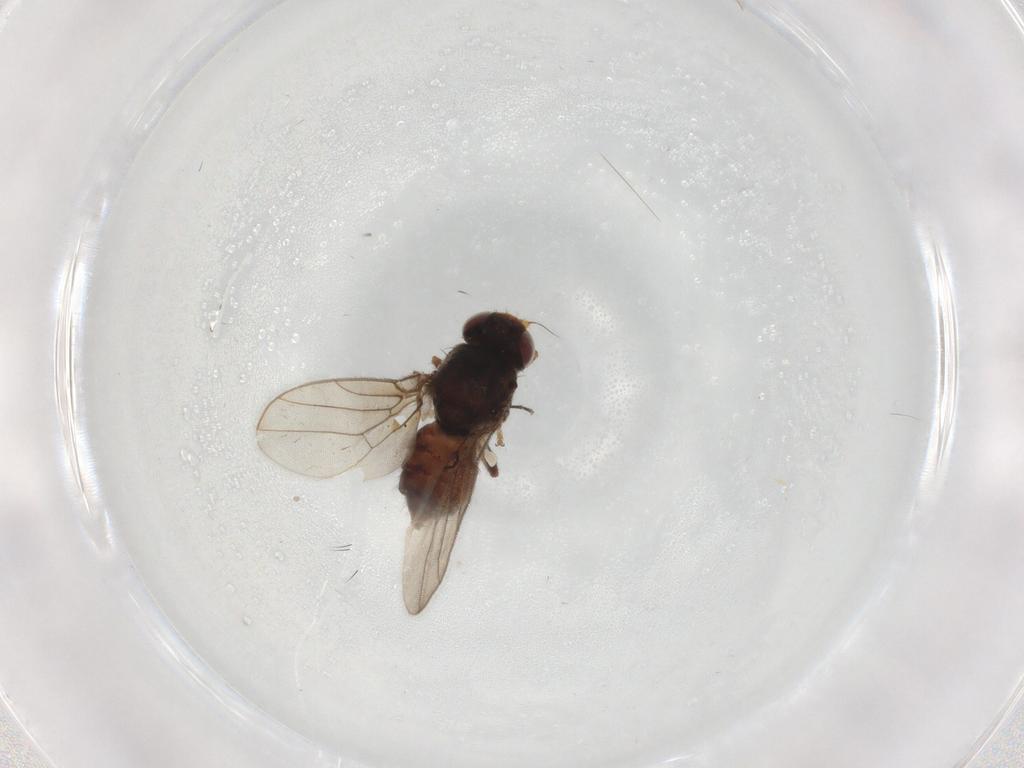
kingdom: Animalia
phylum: Arthropoda
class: Insecta
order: Diptera
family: Chloropidae
